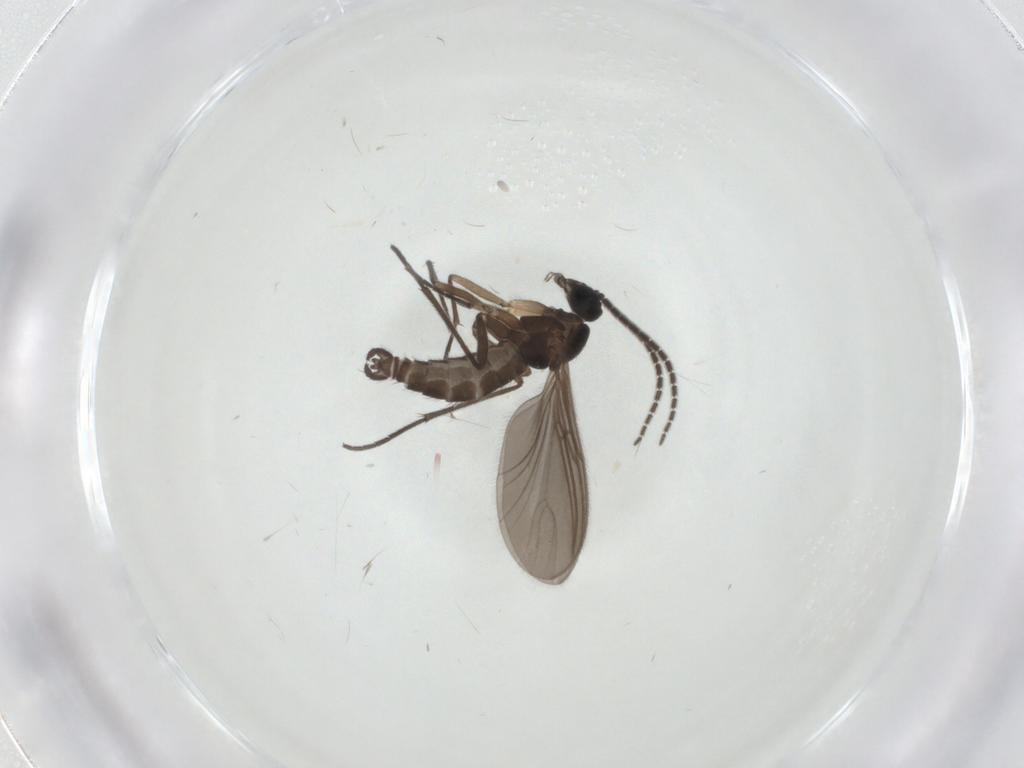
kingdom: Animalia
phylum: Arthropoda
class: Insecta
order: Diptera
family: Sciaridae
